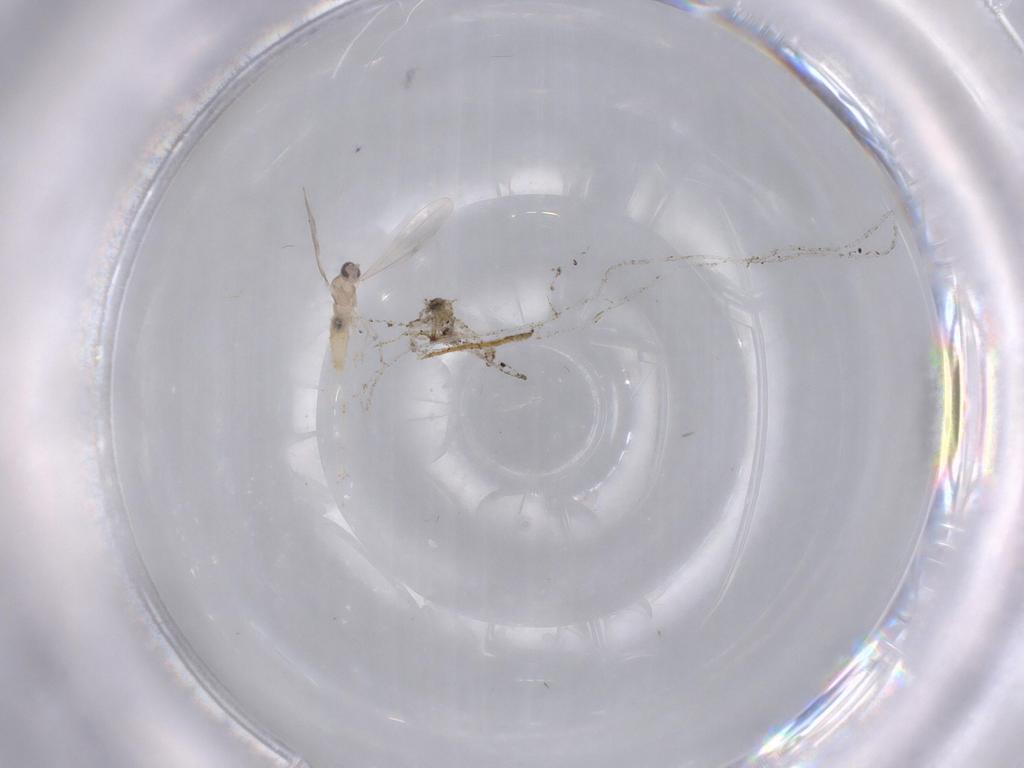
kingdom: Animalia
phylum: Arthropoda
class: Insecta
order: Diptera
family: Cecidomyiidae
